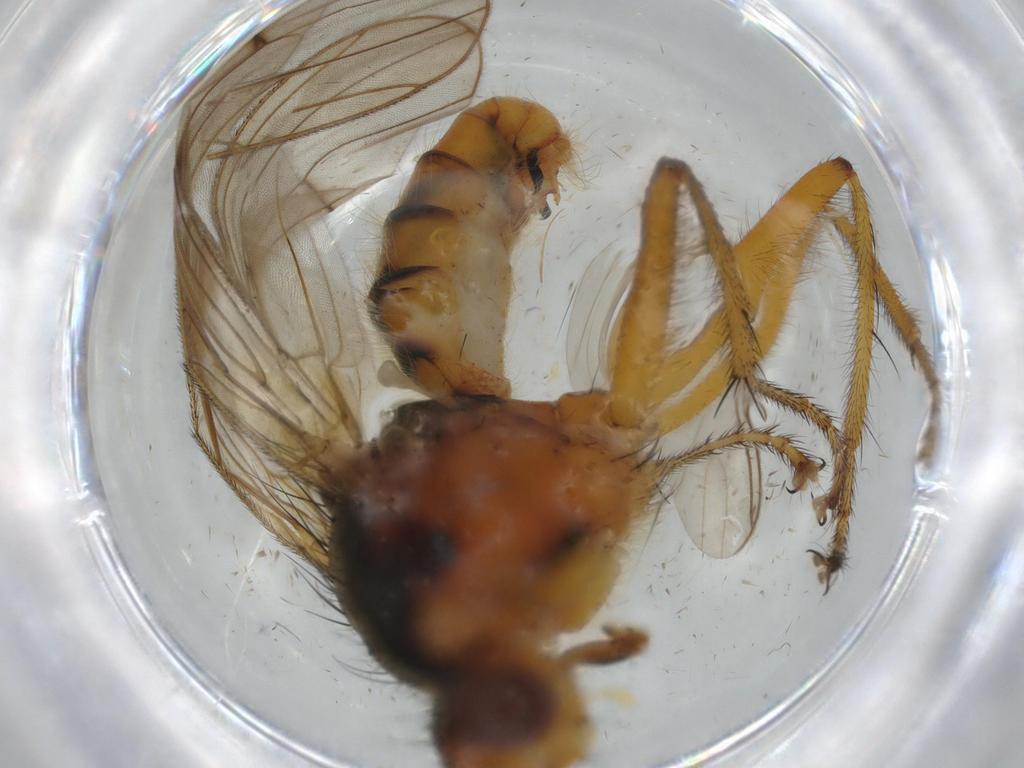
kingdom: Animalia
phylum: Arthropoda
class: Insecta
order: Diptera
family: Scathophagidae
